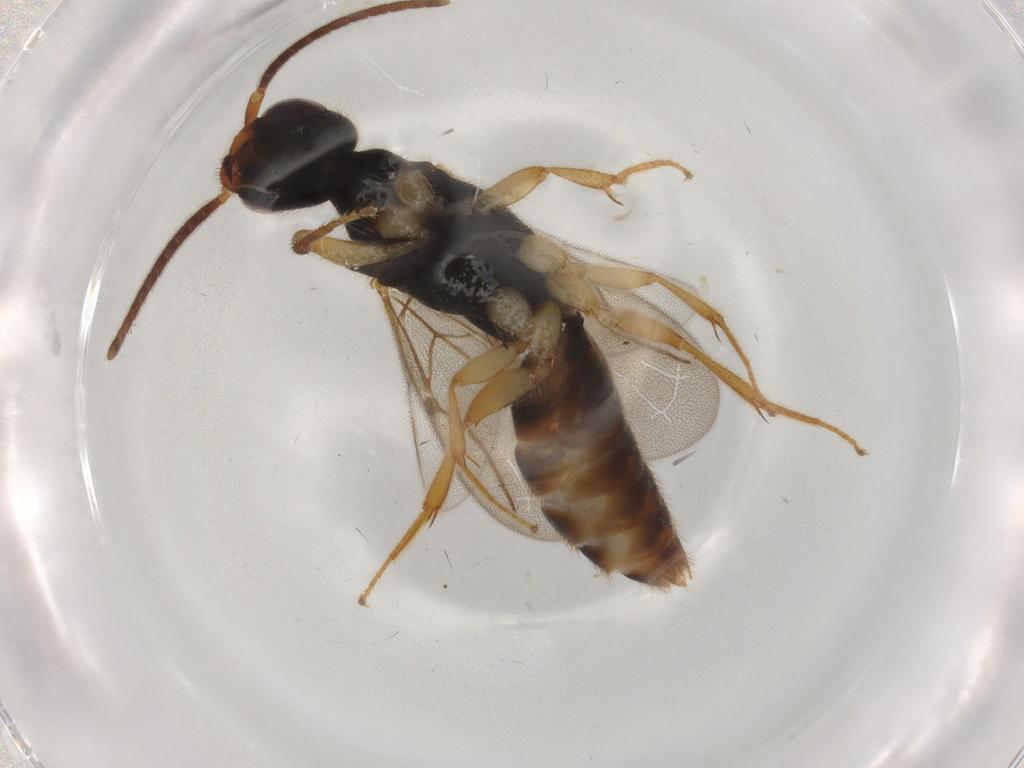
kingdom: Animalia
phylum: Arthropoda
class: Insecta
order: Hymenoptera
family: Eulophidae
